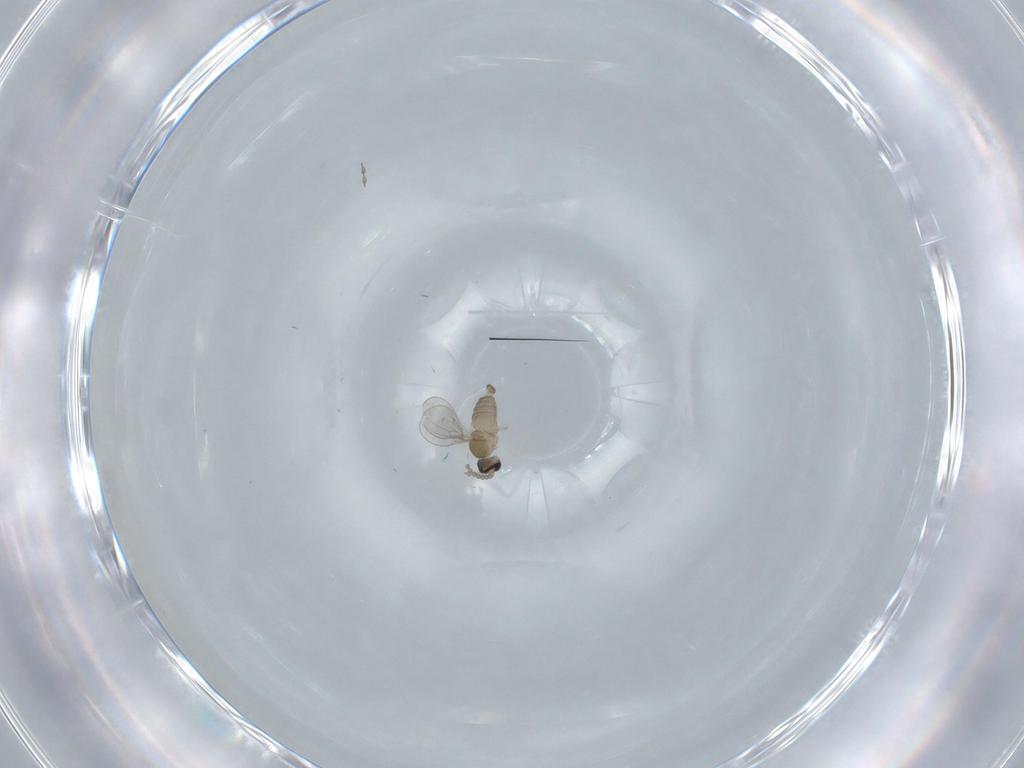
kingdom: Animalia
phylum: Arthropoda
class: Insecta
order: Diptera
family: Cecidomyiidae
